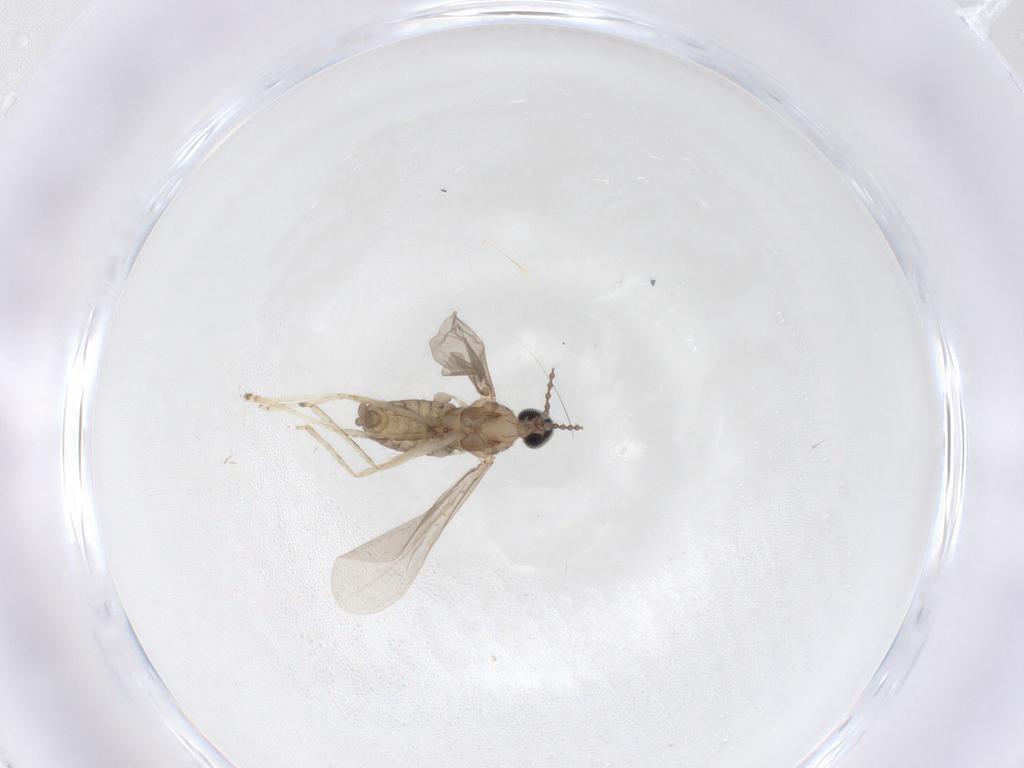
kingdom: Animalia
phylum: Arthropoda
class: Insecta
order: Diptera
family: Cecidomyiidae
